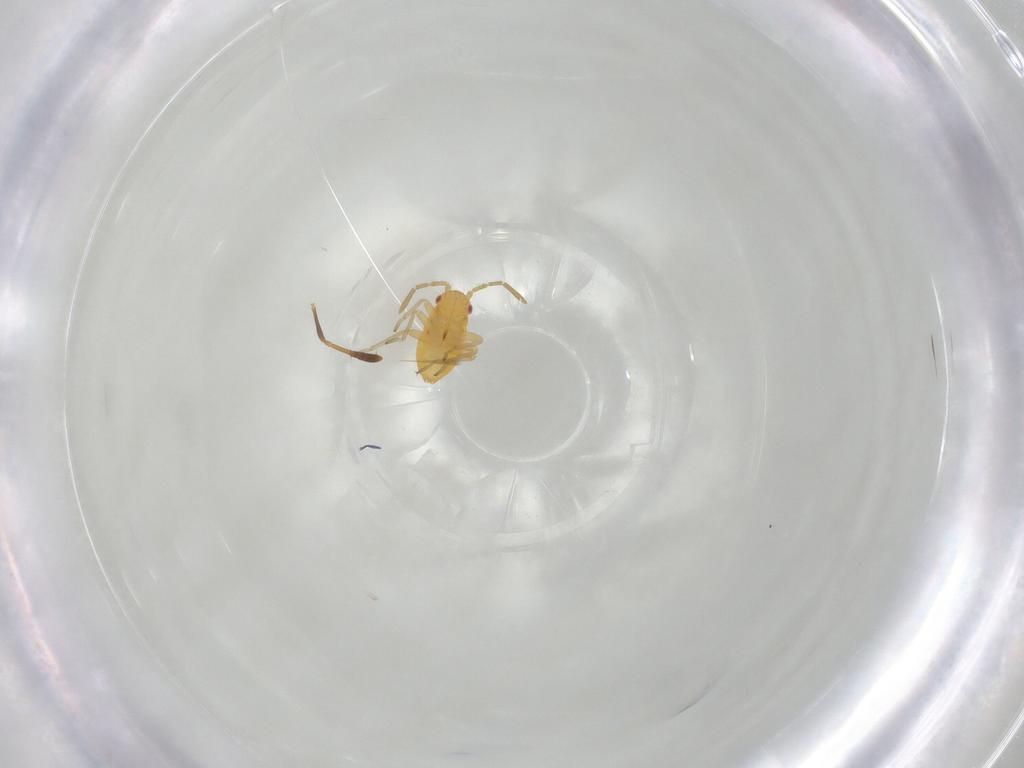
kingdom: Animalia
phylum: Arthropoda
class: Insecta
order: Hemiptera
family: Miridae
